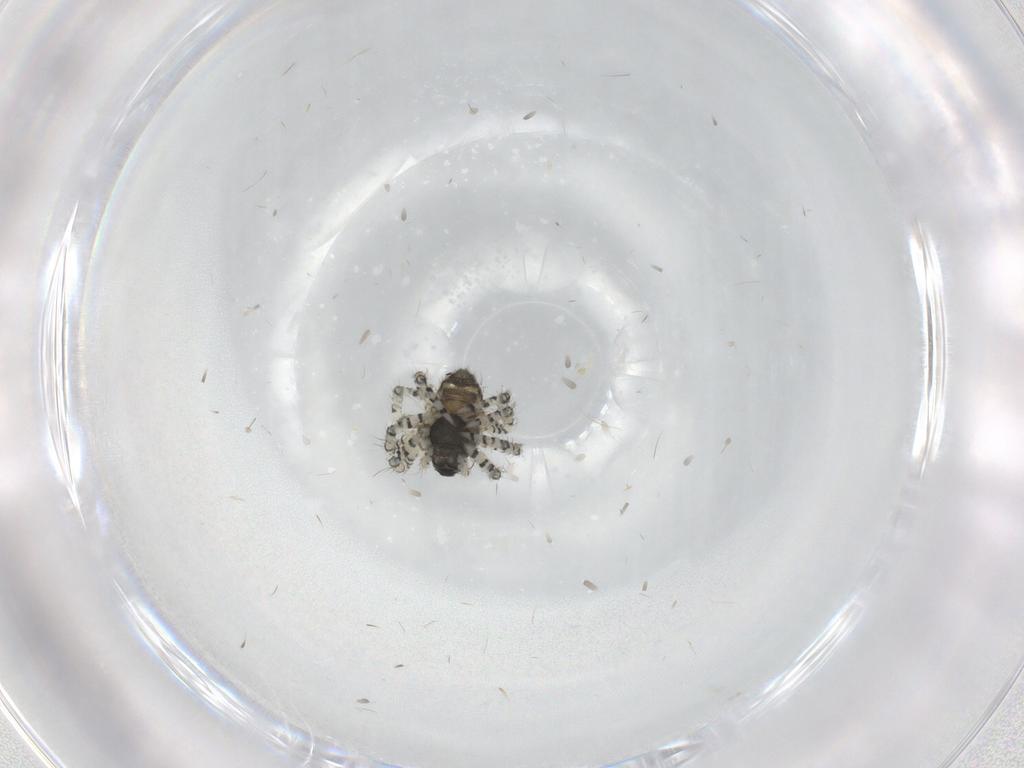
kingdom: Animalia
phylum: Arthropoda
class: Arachnida
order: Araneae
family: Theridiidae
